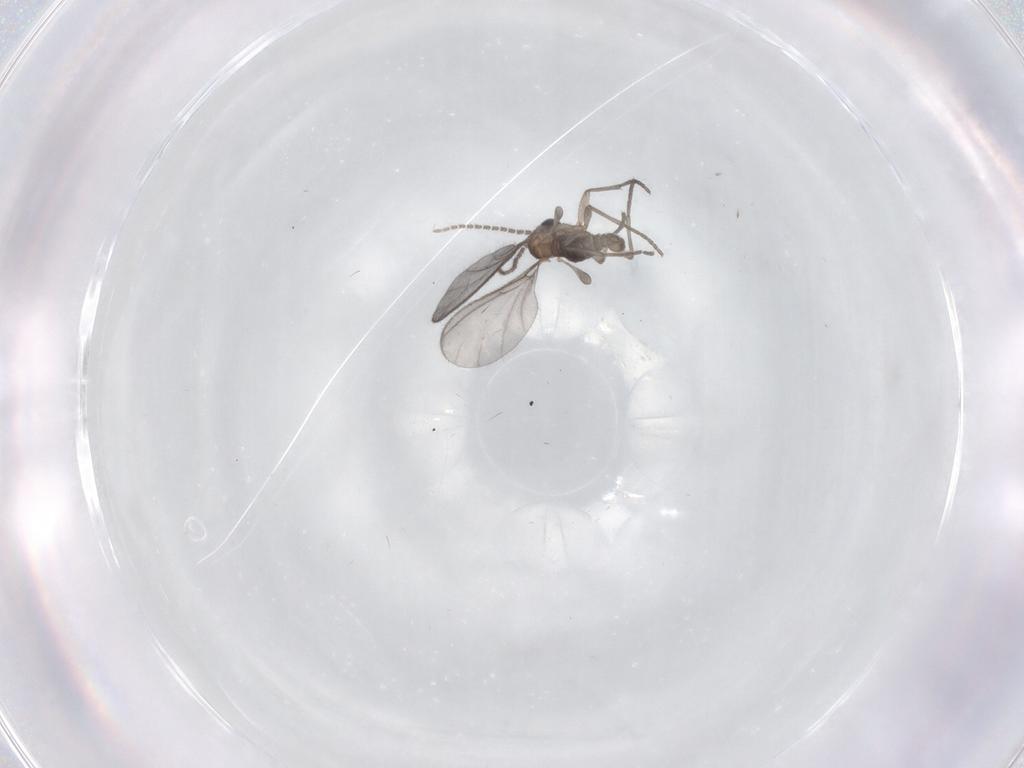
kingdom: Animalia
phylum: Arthropoda
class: Insecta
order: Diptera
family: Sciaridae
